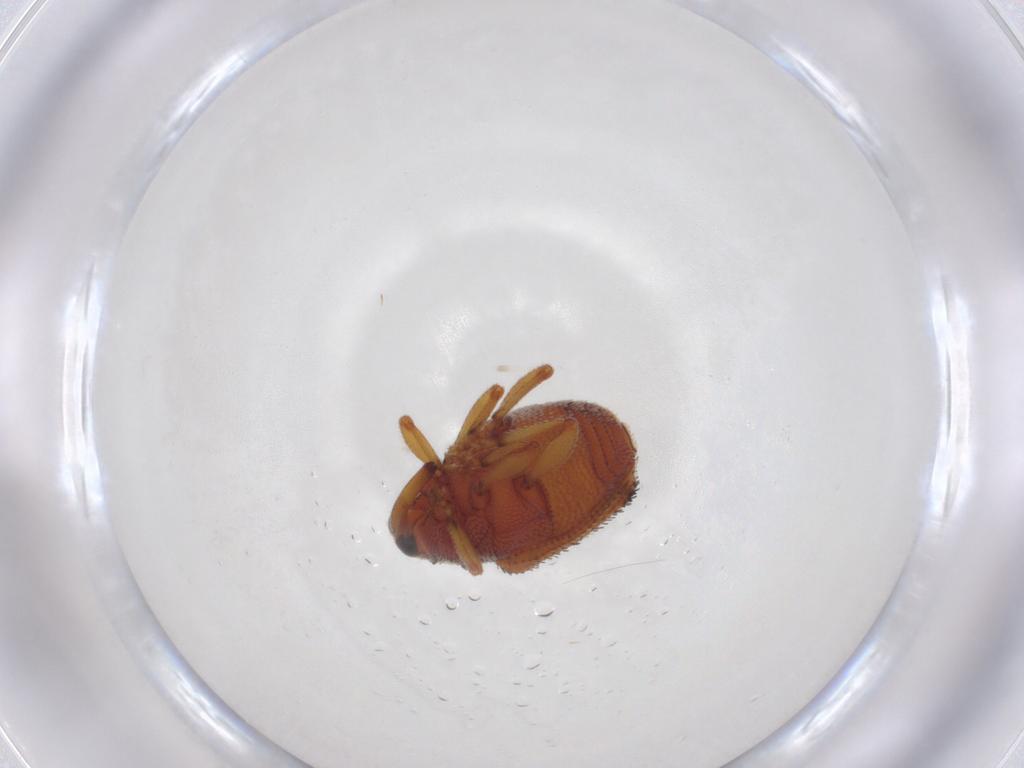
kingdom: Animalia
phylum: Arthropoda
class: Insecta
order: Coleoptera
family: Curculionidae
